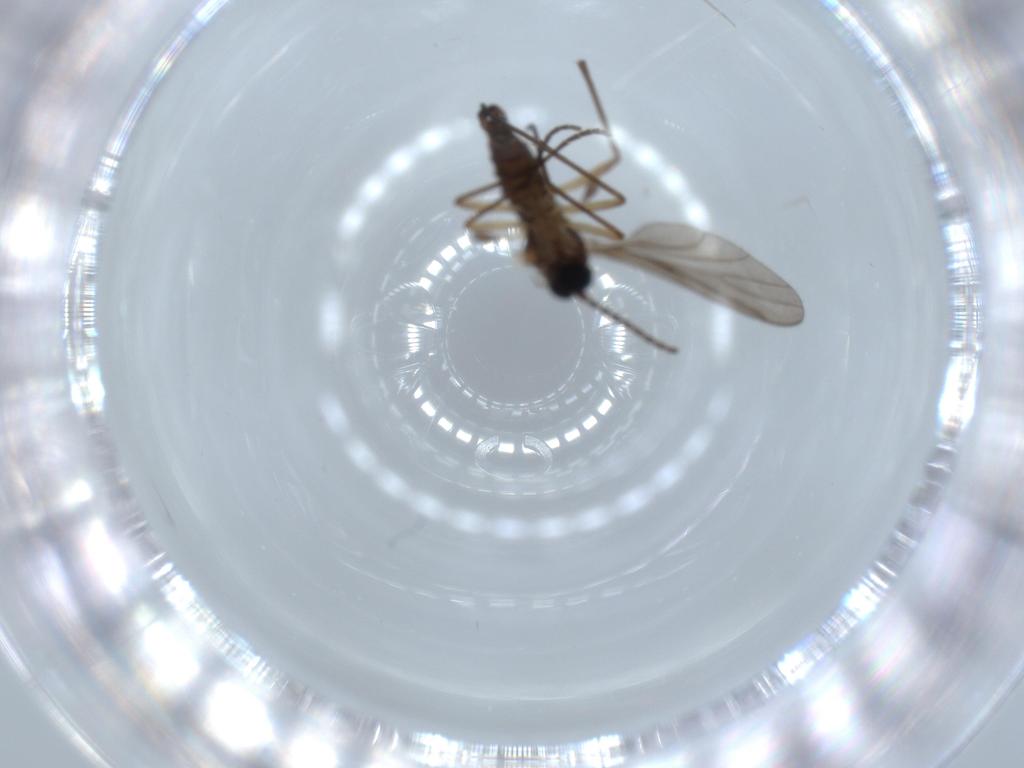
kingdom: Animalia
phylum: Arthropoda
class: Insecta
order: Diptera
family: Sciaridae
